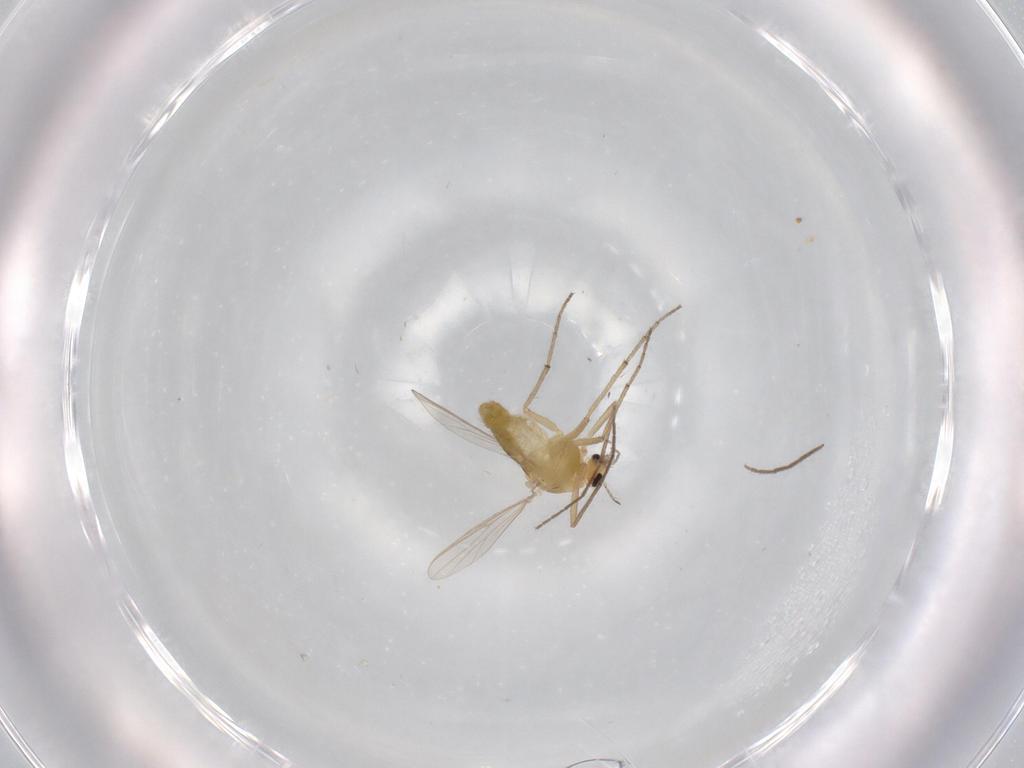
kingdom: Animalia
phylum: Arthropoda
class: Insecta
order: Diptera
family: Chironomidae
